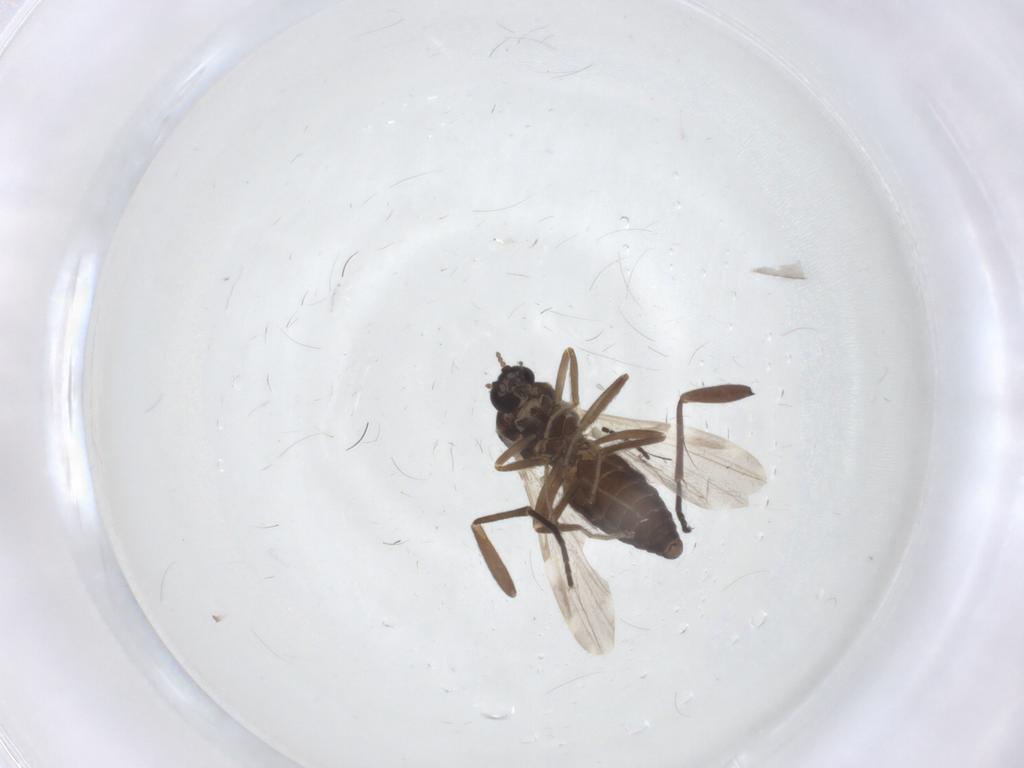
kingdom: Animalia
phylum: Arthropoda
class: Insecta
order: Diptera
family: Ceratopogonidae
